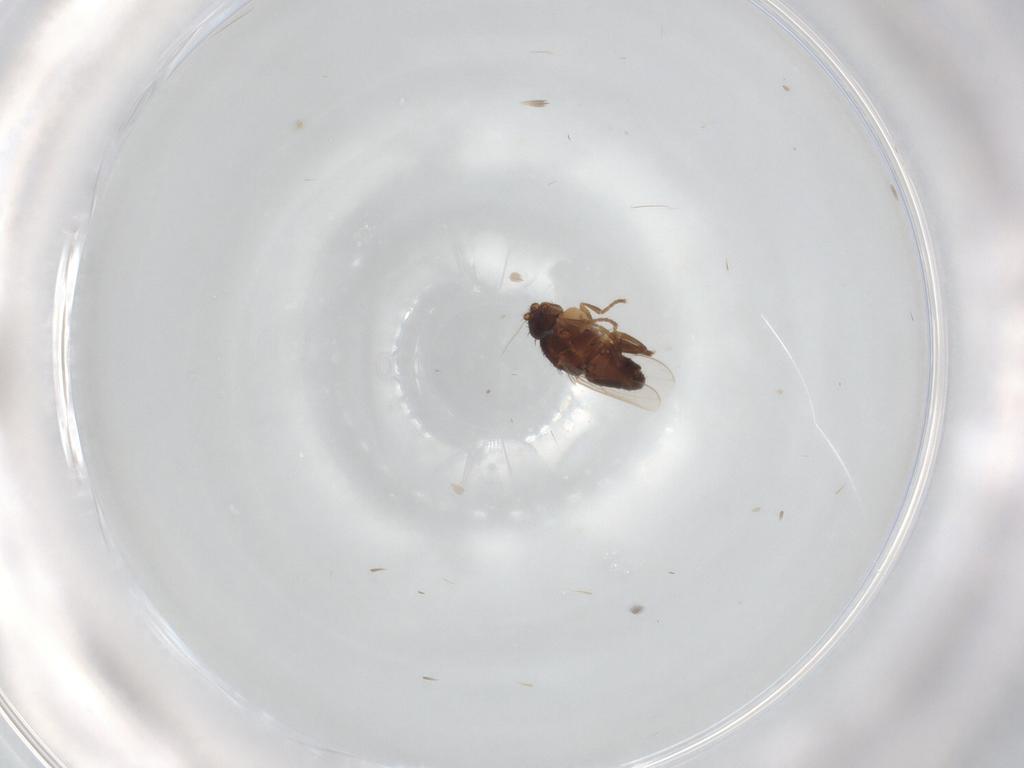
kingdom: Animalia
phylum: Arthropoda
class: Insecta
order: Diptera
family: Sphaeroceridae
